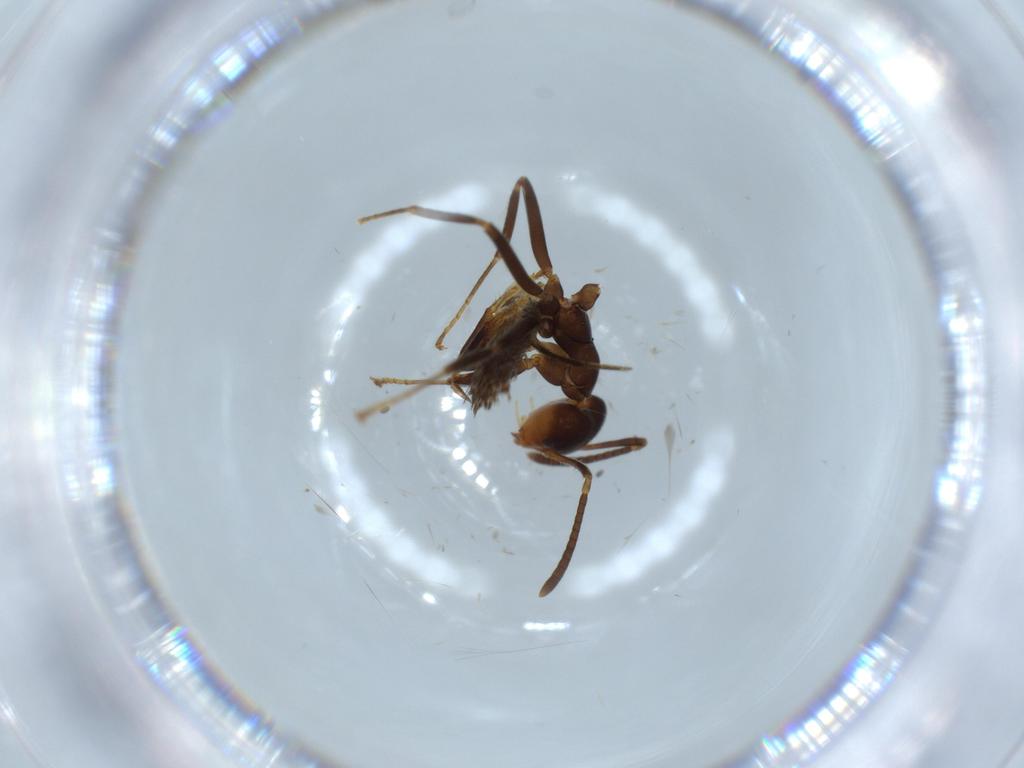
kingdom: Animalia
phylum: Arthropoda
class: Insecta
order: Hymenoptera
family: Formicidae
